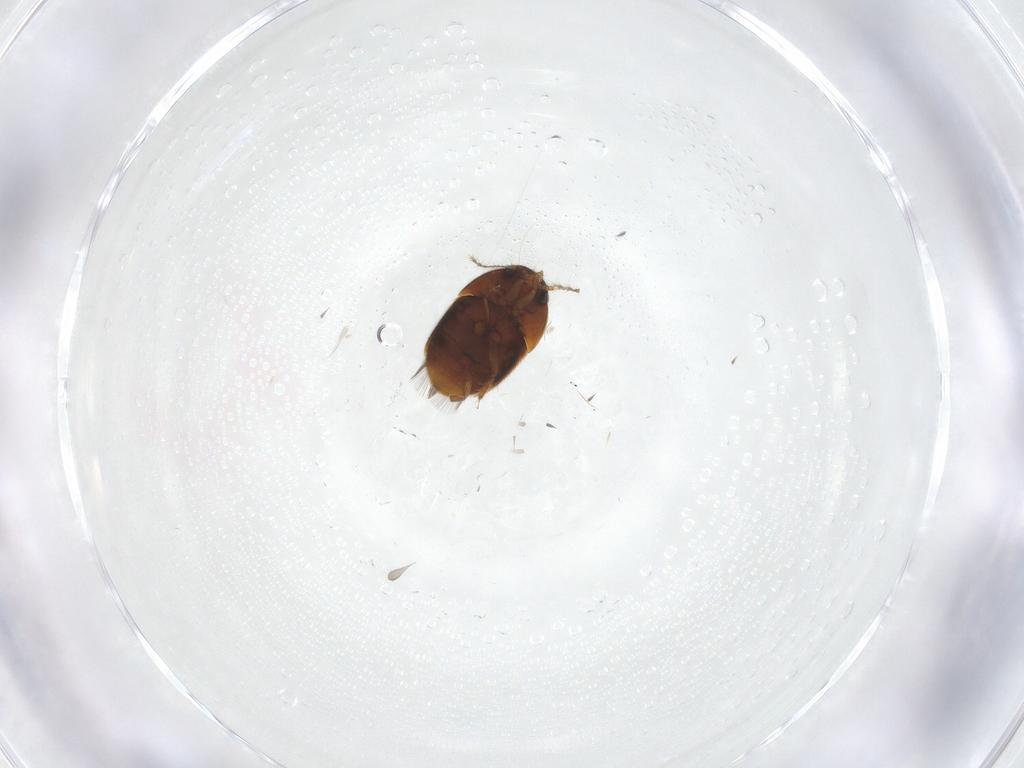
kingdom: Animalia
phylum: Arthropoda
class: Insecta
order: Coleoptera
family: Ptiliidae
